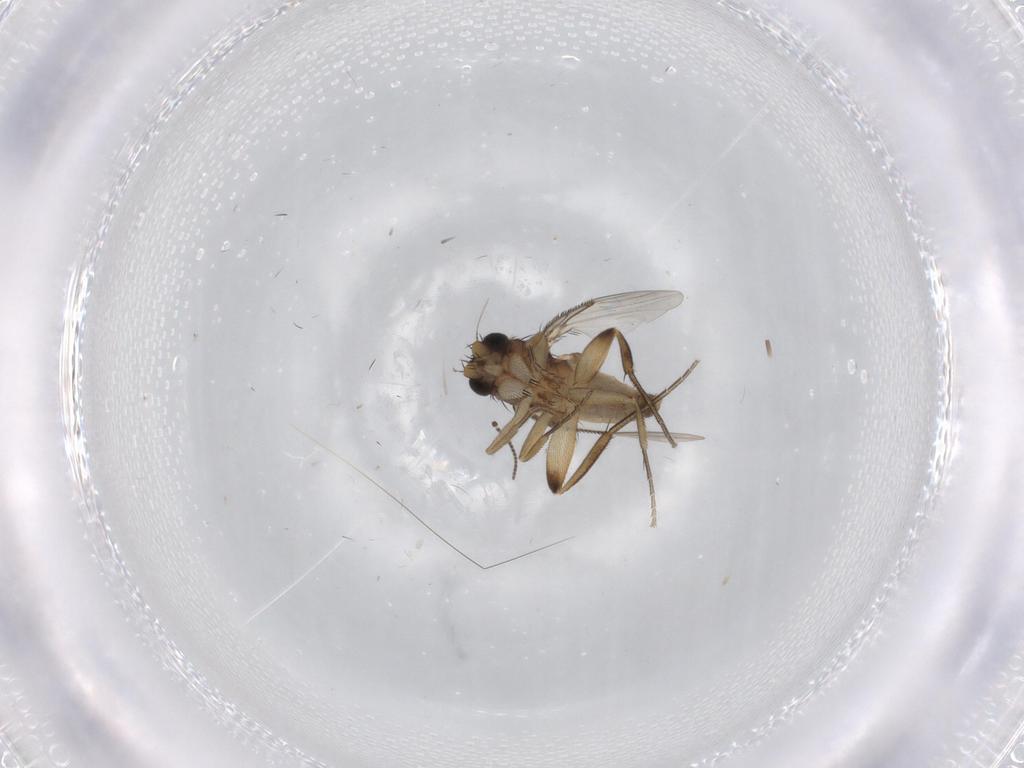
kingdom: Animalia
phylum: Arthropoda
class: Insecta
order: Diptera
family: Phoridae
